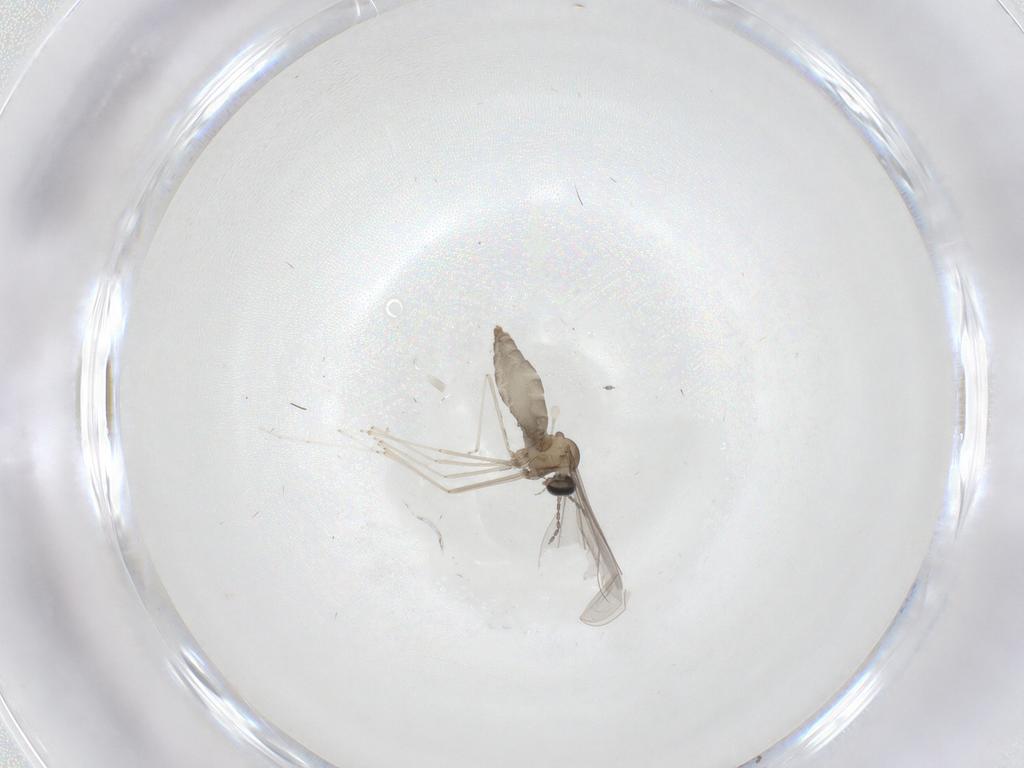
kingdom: Animalia
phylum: Arthropoda
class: Insecta
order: Diptera
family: Cecidomyiidae
